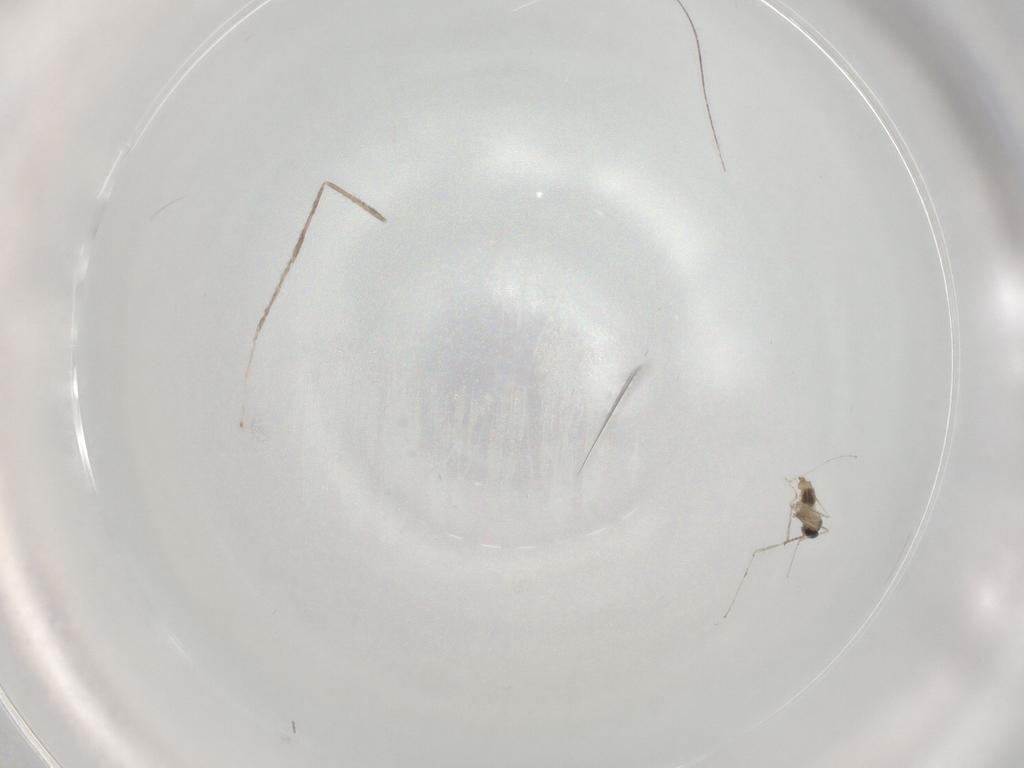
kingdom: Animalia
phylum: Arthropoda
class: Insecta
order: Diptera
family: Cecidomyiidae
